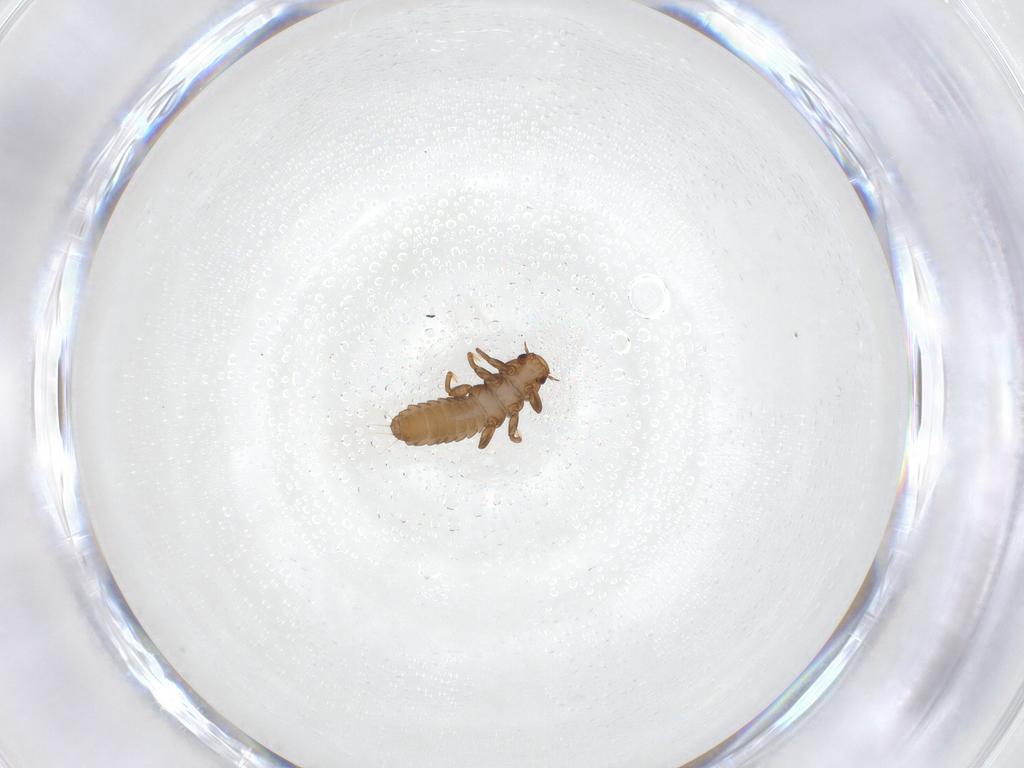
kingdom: Animalia
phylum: Arthropoda
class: Insecta
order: Coleoptera
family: Meloidae
